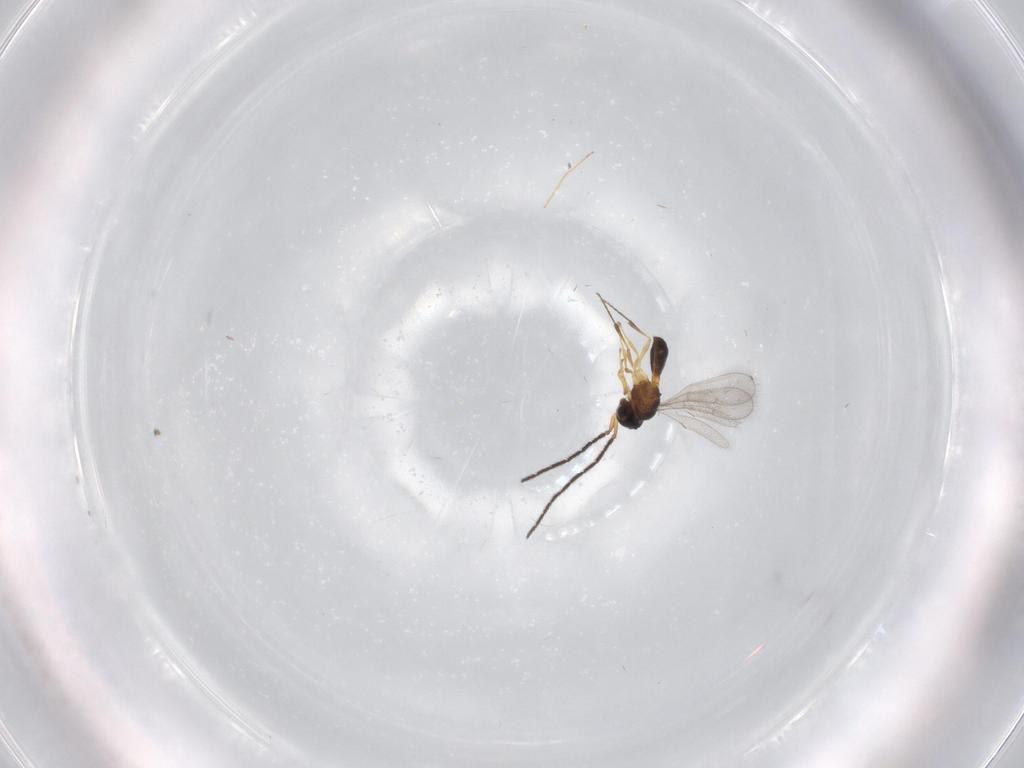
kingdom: Animalia
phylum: Arthropoda
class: Insecta
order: Hymenoptera
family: Scelionidae
